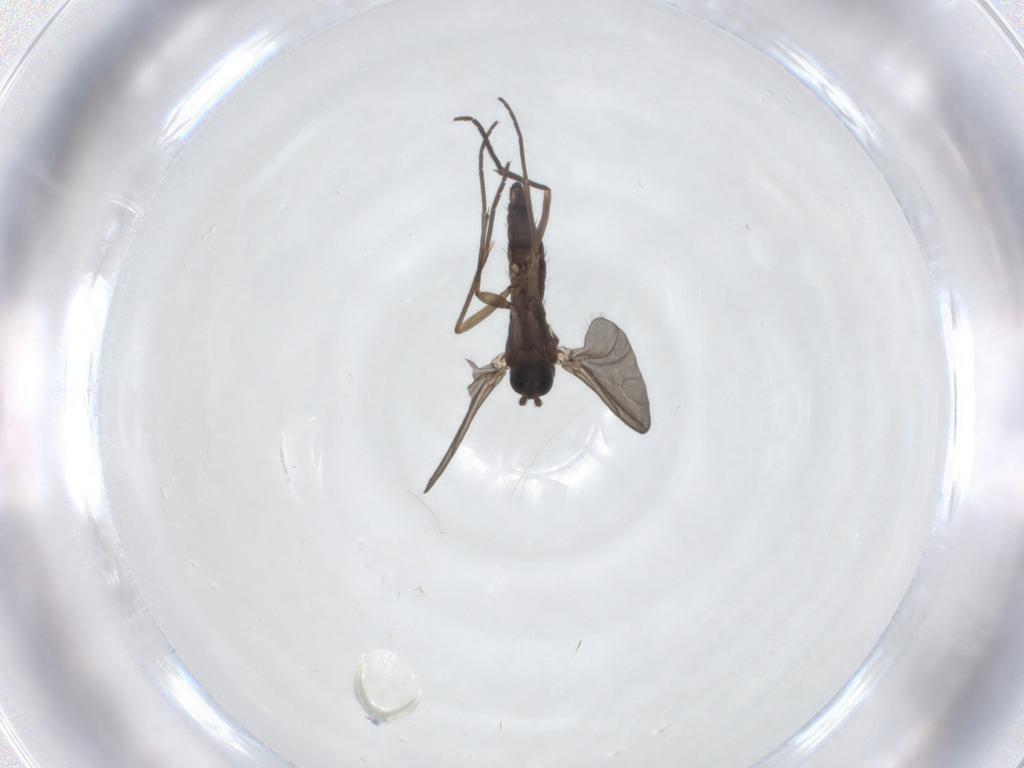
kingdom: Animalia
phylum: Arthropoda
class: Insecta
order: Diptera
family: Sciaridae
